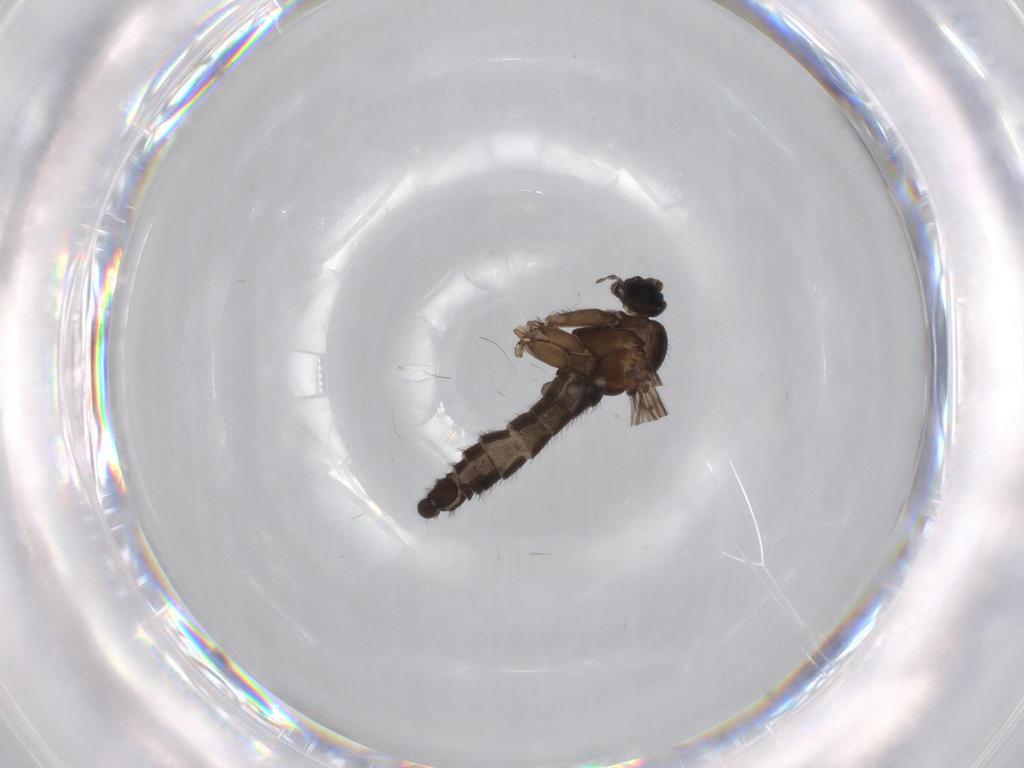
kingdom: Animalia
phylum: Arthropoda
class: Insecta
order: Diptera
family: Sciaridae
